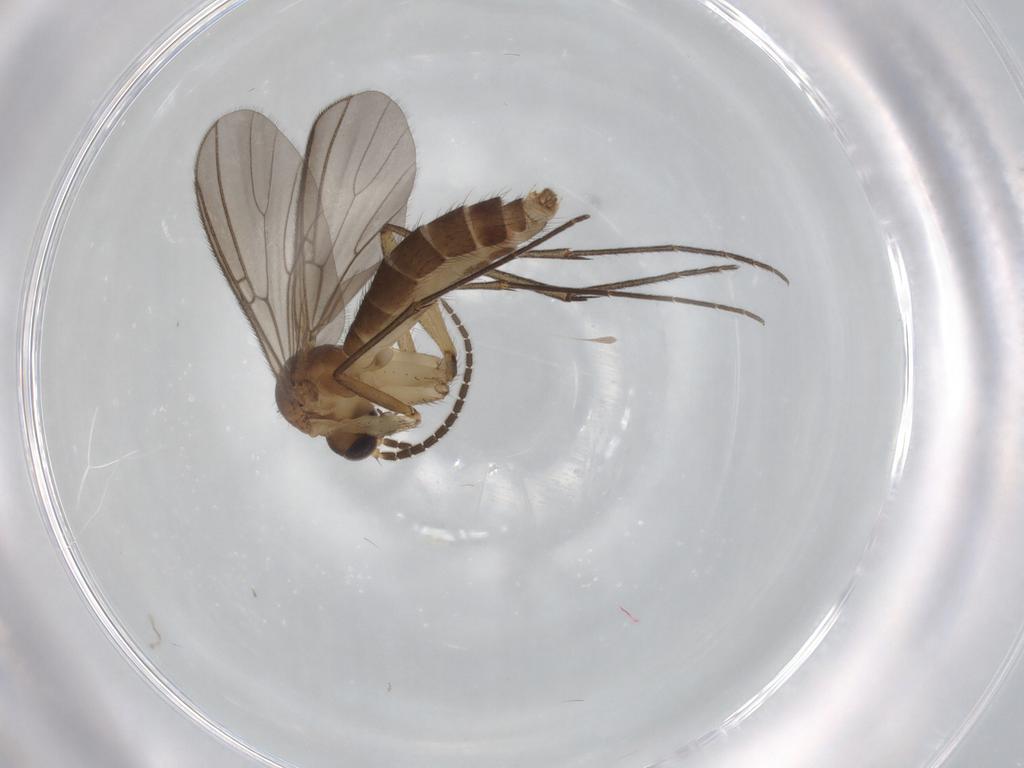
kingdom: Animalia
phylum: Arthropoda
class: Insecta
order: Diptera
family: Mycetophilidae
